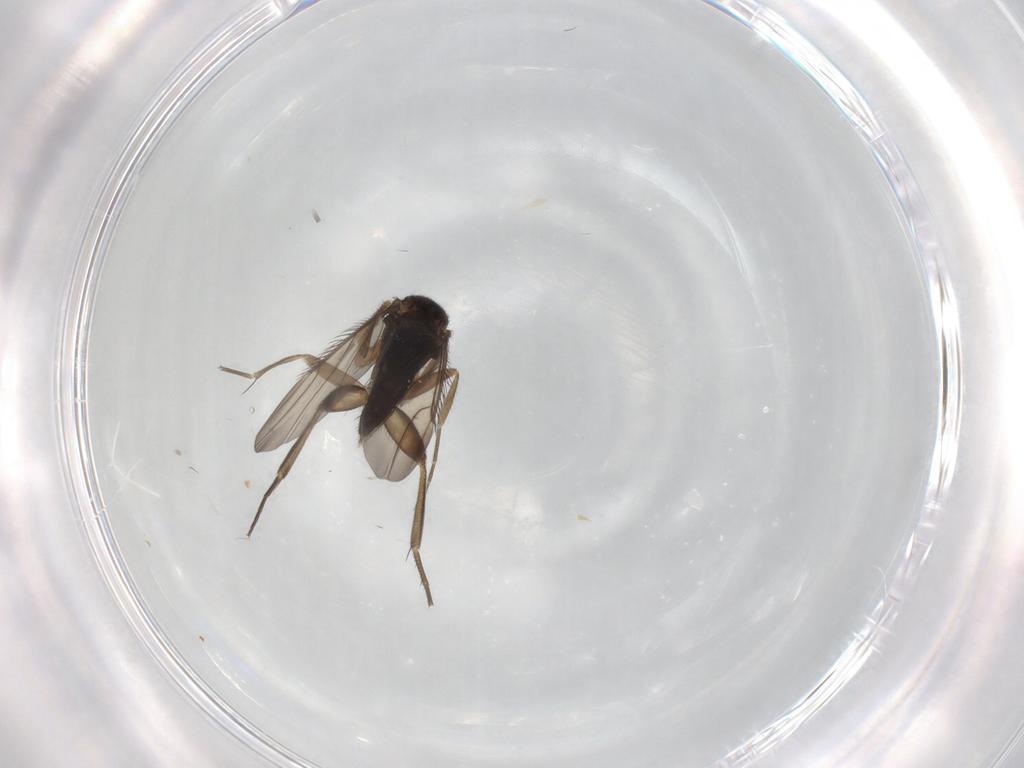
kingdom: Animalia
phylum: Arthropoda
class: Insecta
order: Diptera
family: Phoridae
